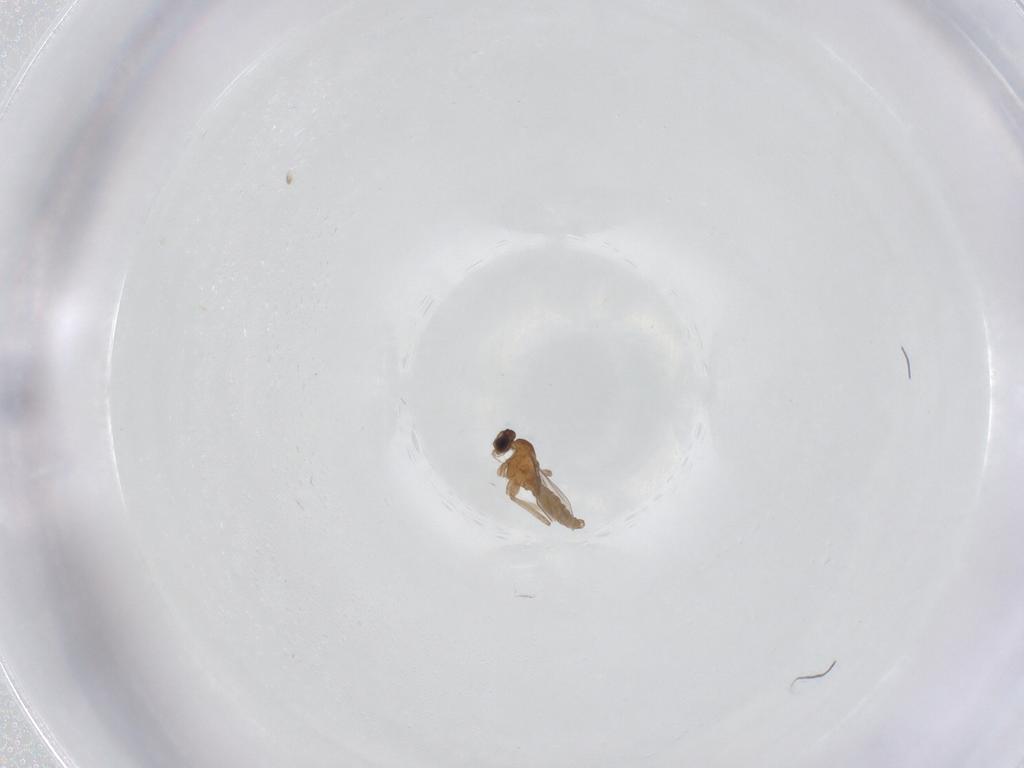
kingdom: Animalia
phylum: Arthropoda
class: Insecta
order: Diptera
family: Cecidomyiidae
